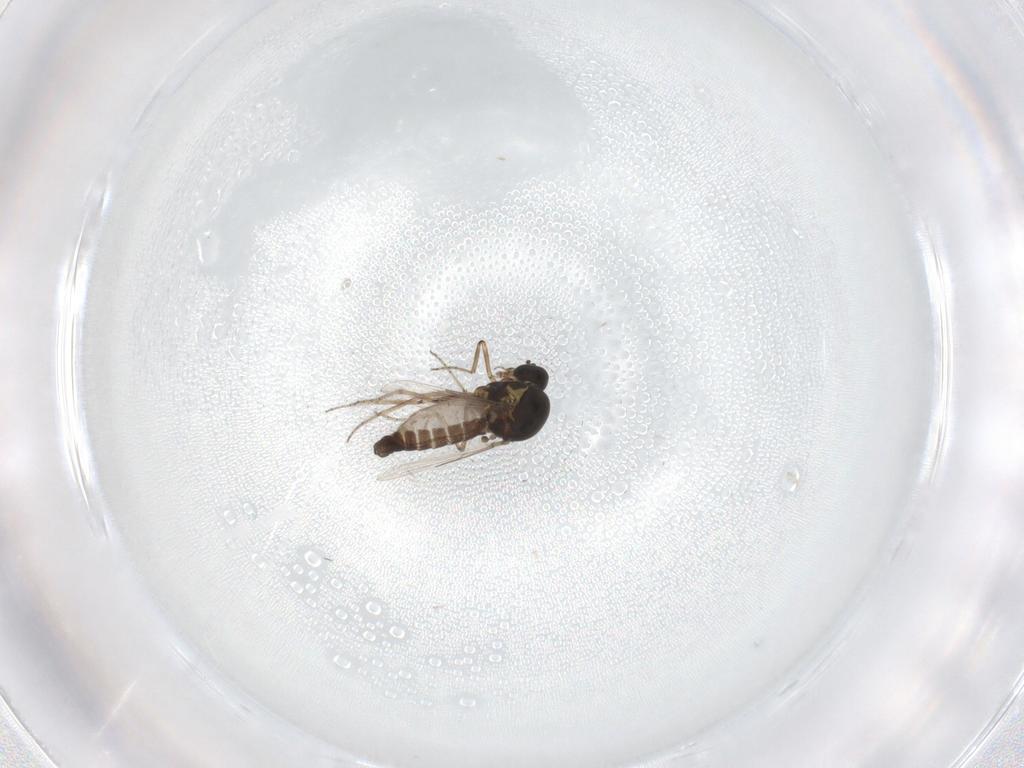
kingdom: Animalia
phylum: Arthropoda
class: Insecta
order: Diptera
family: Ceratopogonidae
